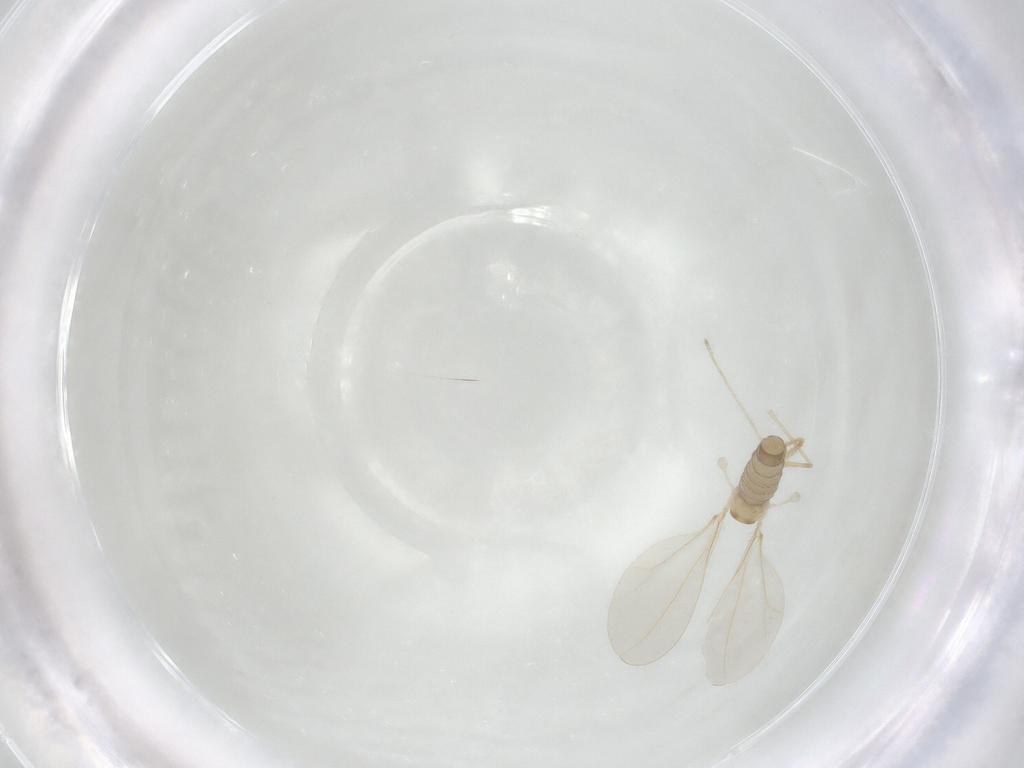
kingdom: Animalia
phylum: Arthropoda
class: Insecta
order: Diptera
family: Cecidomyiidae
